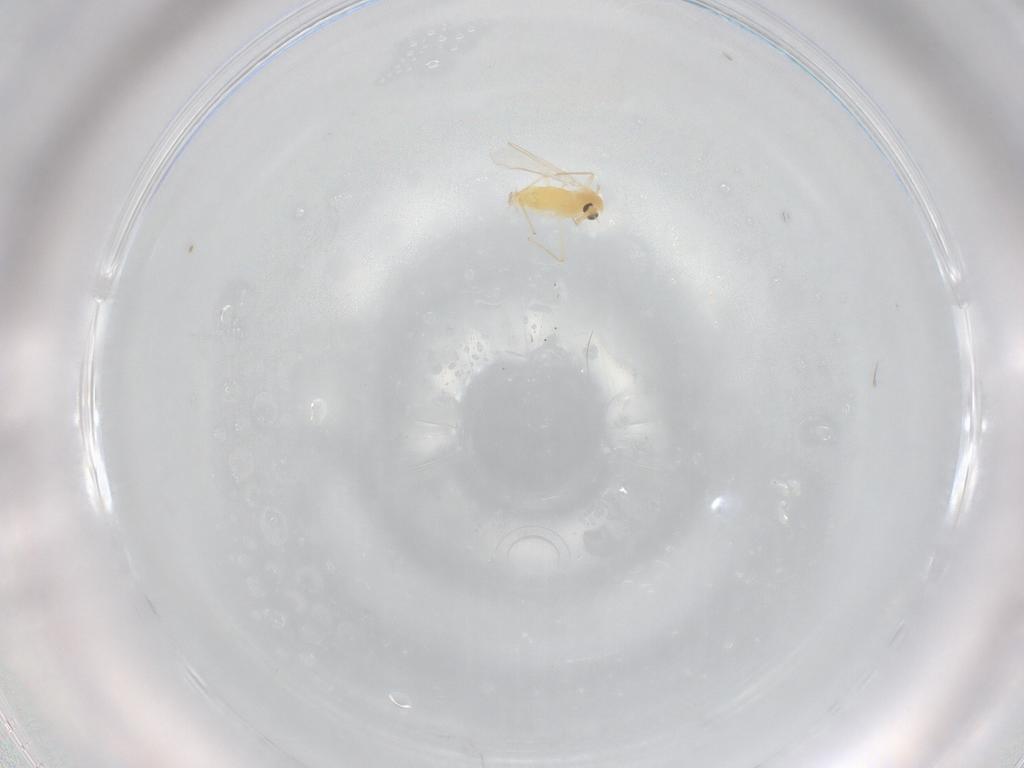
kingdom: Animalia
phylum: Arthropoda
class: Insecta
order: Diptera
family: Chironomidae
